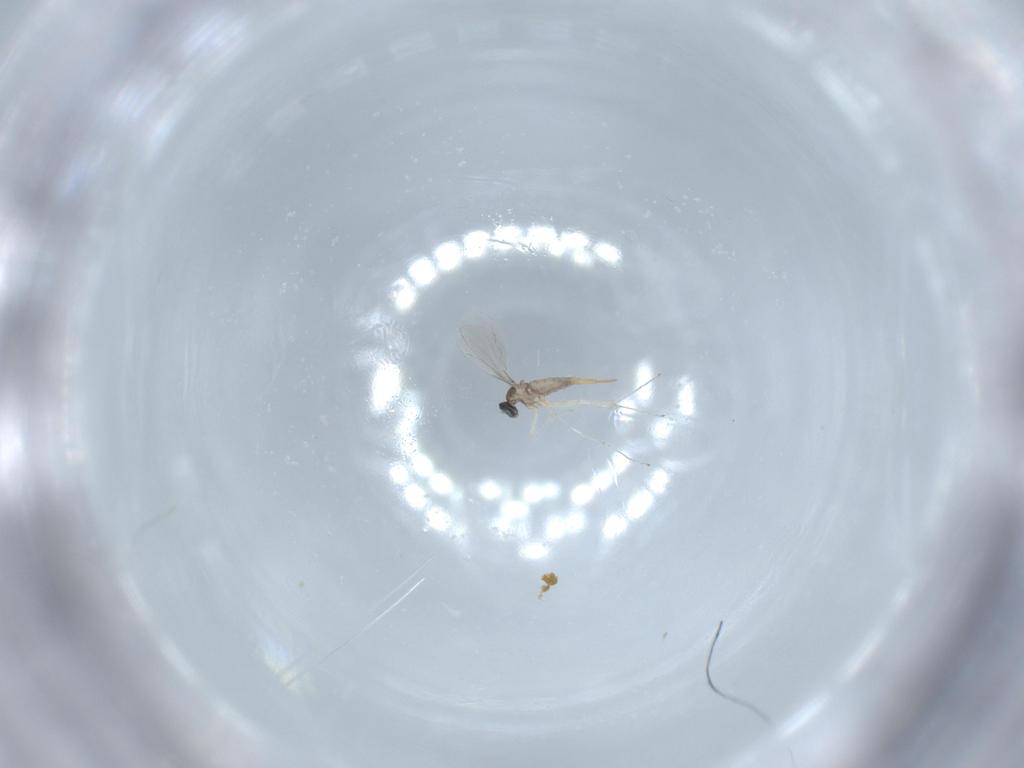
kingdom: Animalia
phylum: Arthropoda
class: Insecta
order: Diptera
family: Cecidomyiidae
